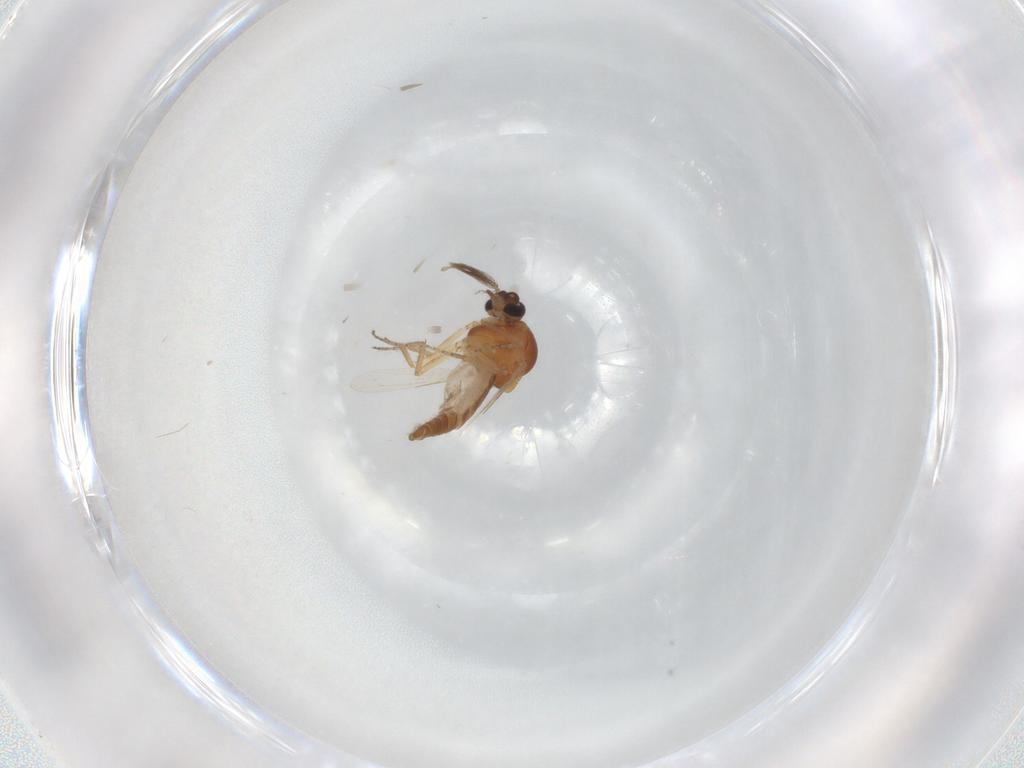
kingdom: Animalia
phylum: Arthropoda
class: Insecta
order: Diptera
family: Ceratopogonidae
